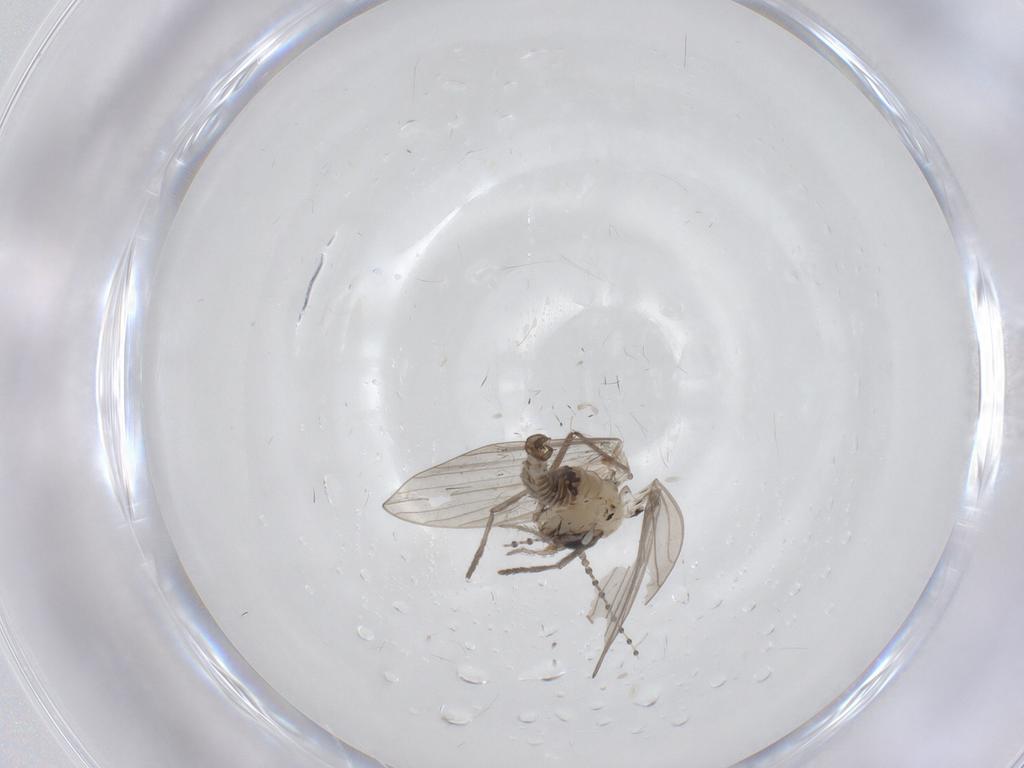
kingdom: Animalia
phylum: Arthropoda
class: Insecta
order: Diptera
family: Psychodidae
